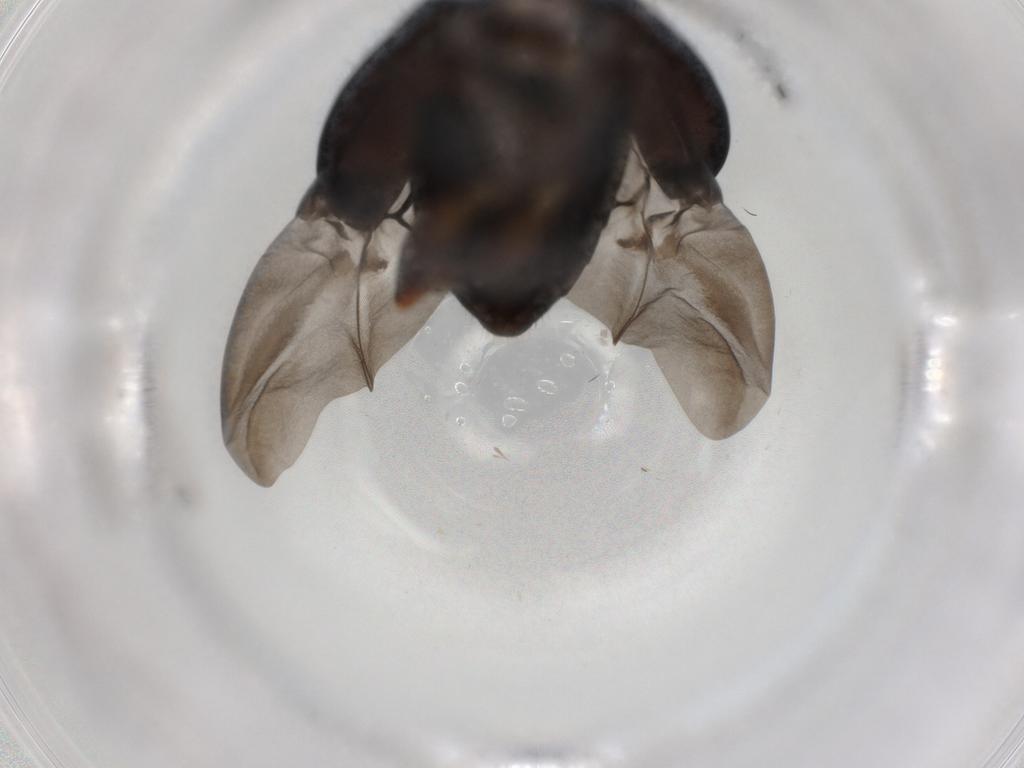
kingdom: Animalia
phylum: Arthropoda
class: Insecta
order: Coleoptera
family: Chrysomelidae
